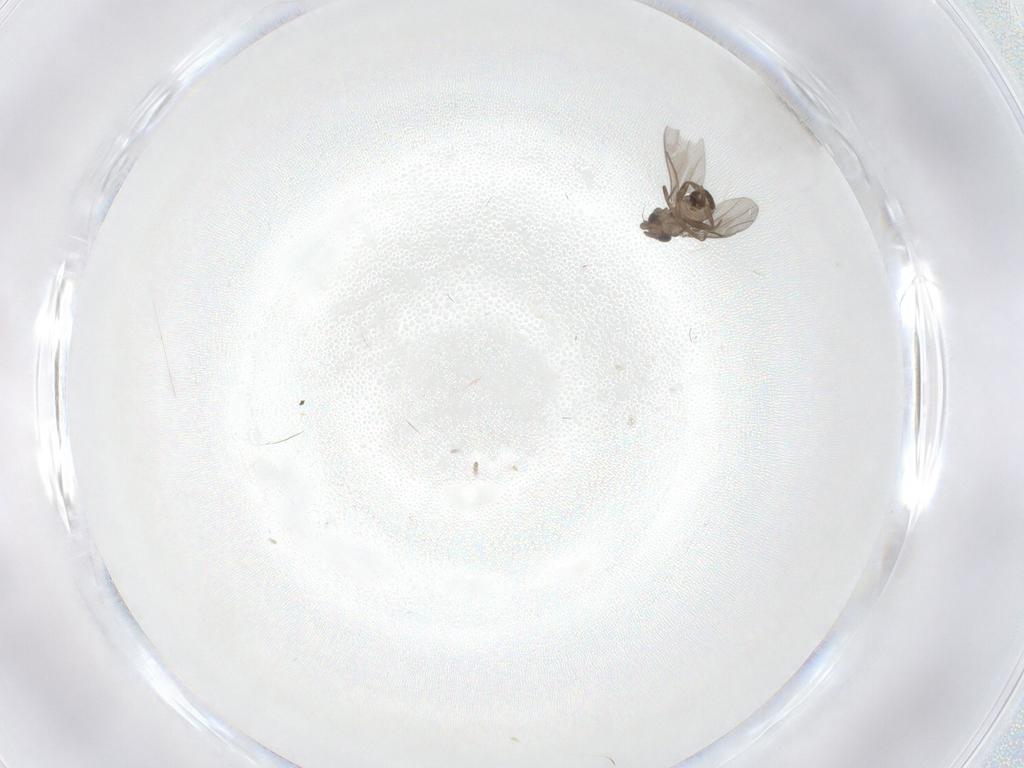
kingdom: Animalia
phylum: Arthropoda
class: Insecta
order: Diptera
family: Cecidomyiidae
